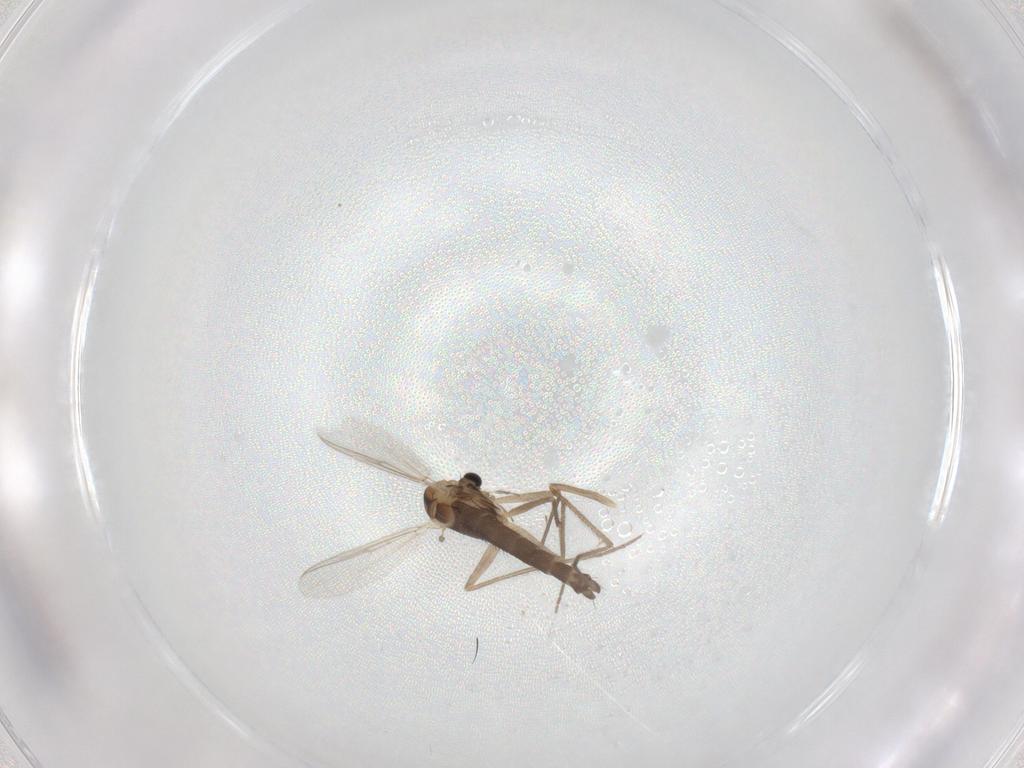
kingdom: Animalia
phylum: Arthropoda
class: Insecta
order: Diptera
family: Chironomidae
